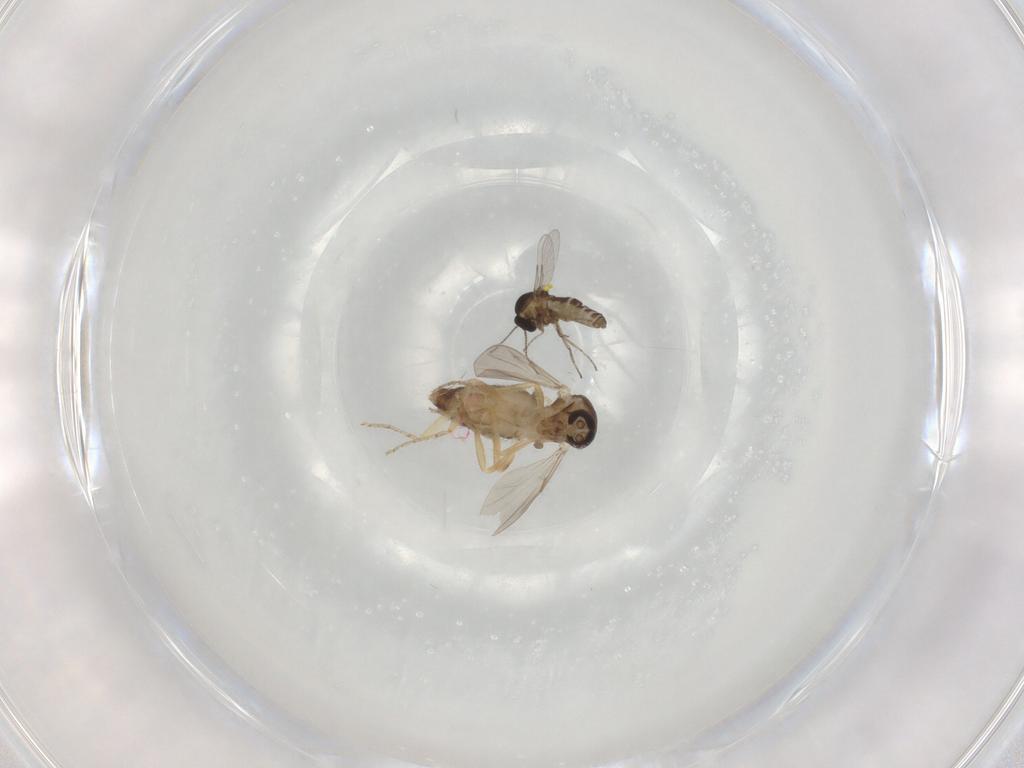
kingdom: Animalia
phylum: Arthropoda
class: Insecta
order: Diptera
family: Ceratopogonidae
